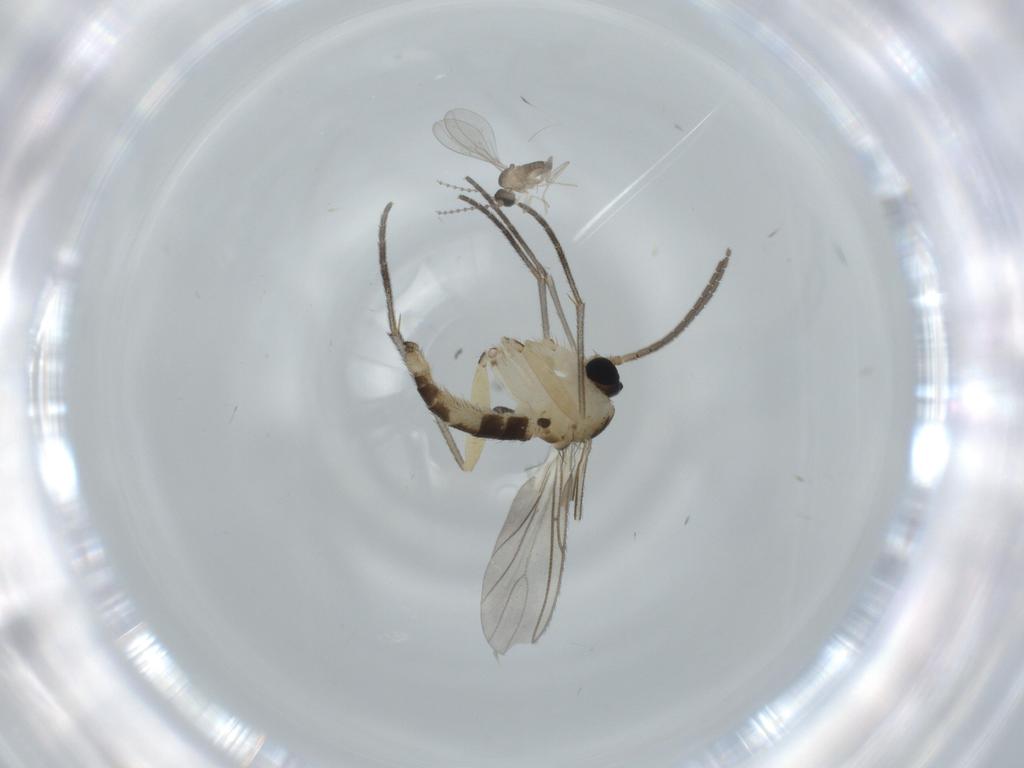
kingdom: Animalia
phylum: Arthropoda
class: Insecta
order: Diptera
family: Sciaridae
